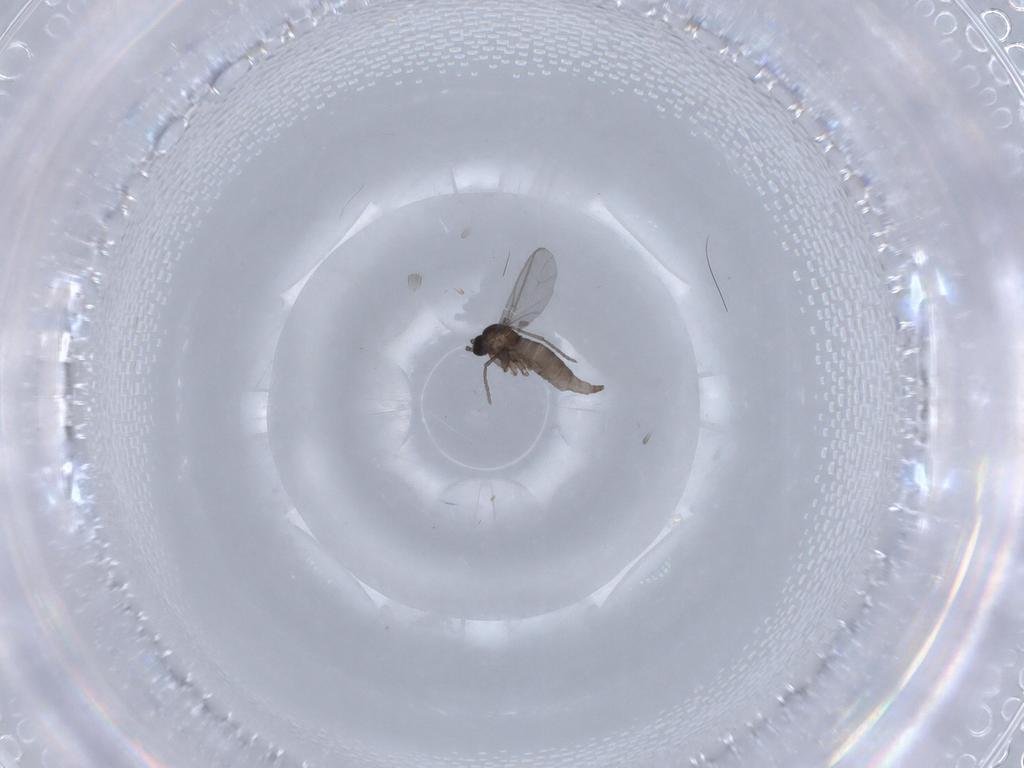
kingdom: Animalia
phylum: Arthropoda
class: Insecta
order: Diptera
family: Sciaridae
